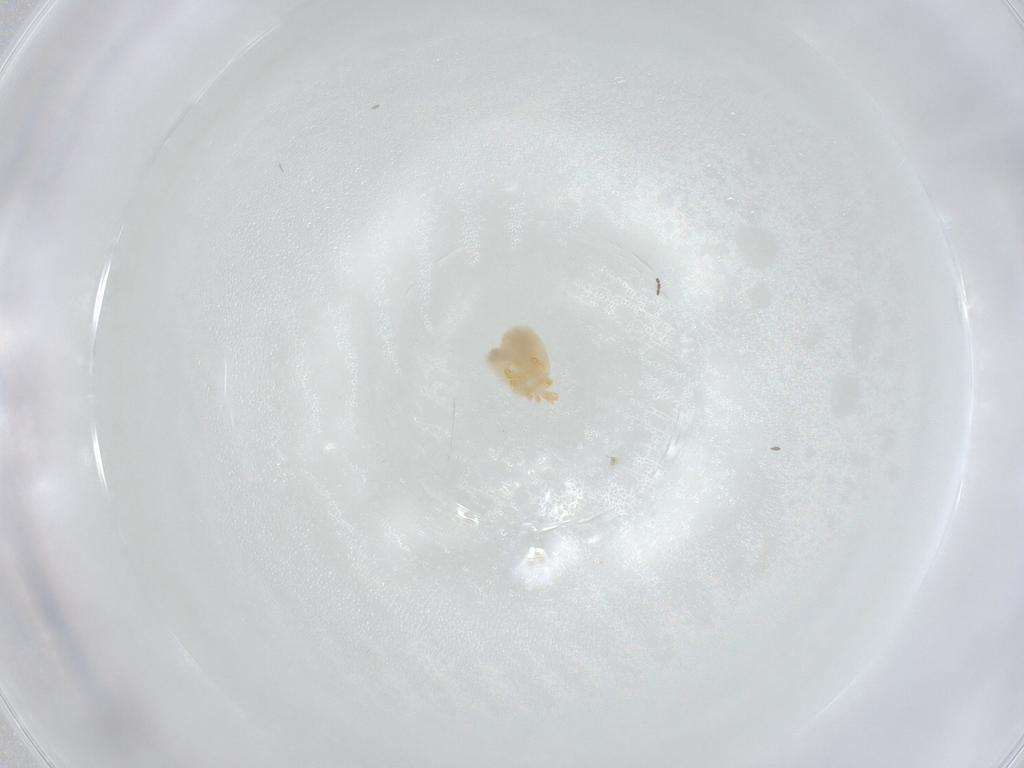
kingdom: Animalia
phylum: Arthropoda
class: Arachnida
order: Trombidiformes
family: Eupodidae
